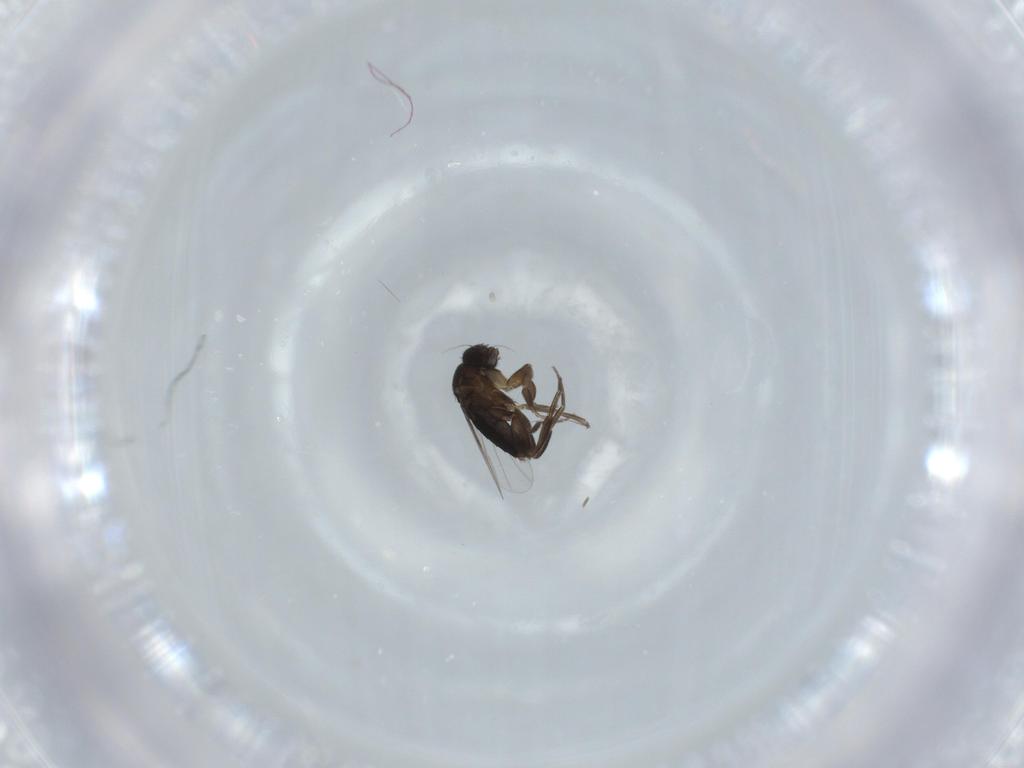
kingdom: Animalia
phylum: Arthropoda
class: Insecta
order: Diptera
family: Phoridae
